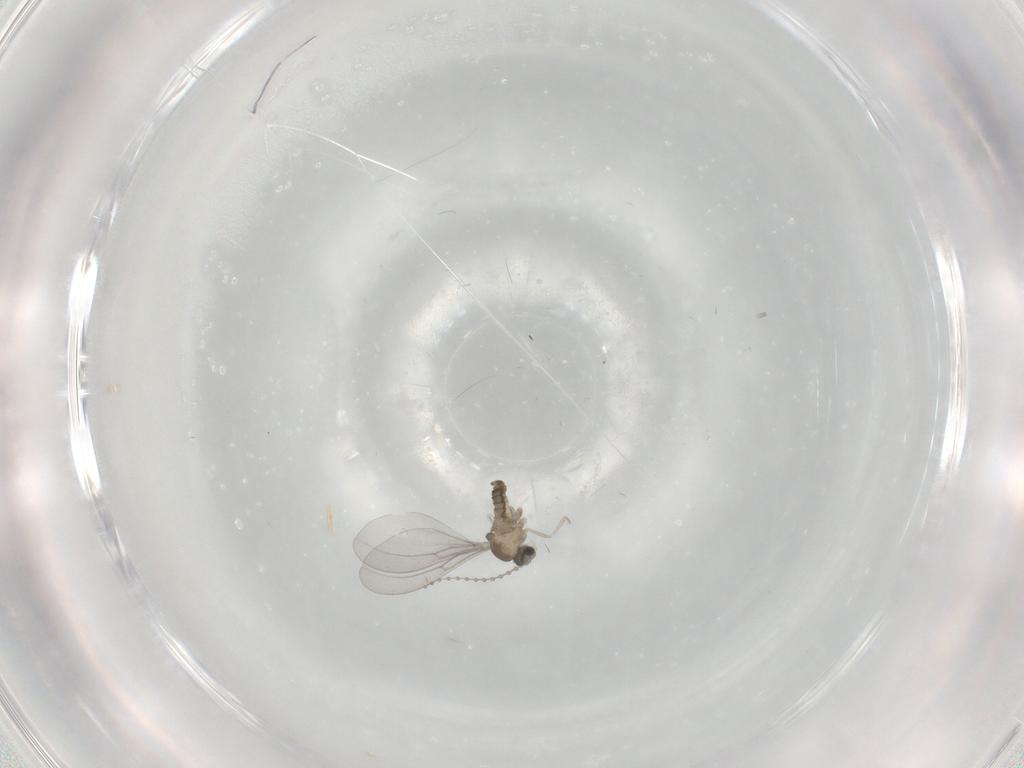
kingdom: Animalia
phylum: Arthropoda
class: Insecta
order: Diptera
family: Cecidomyiidae
